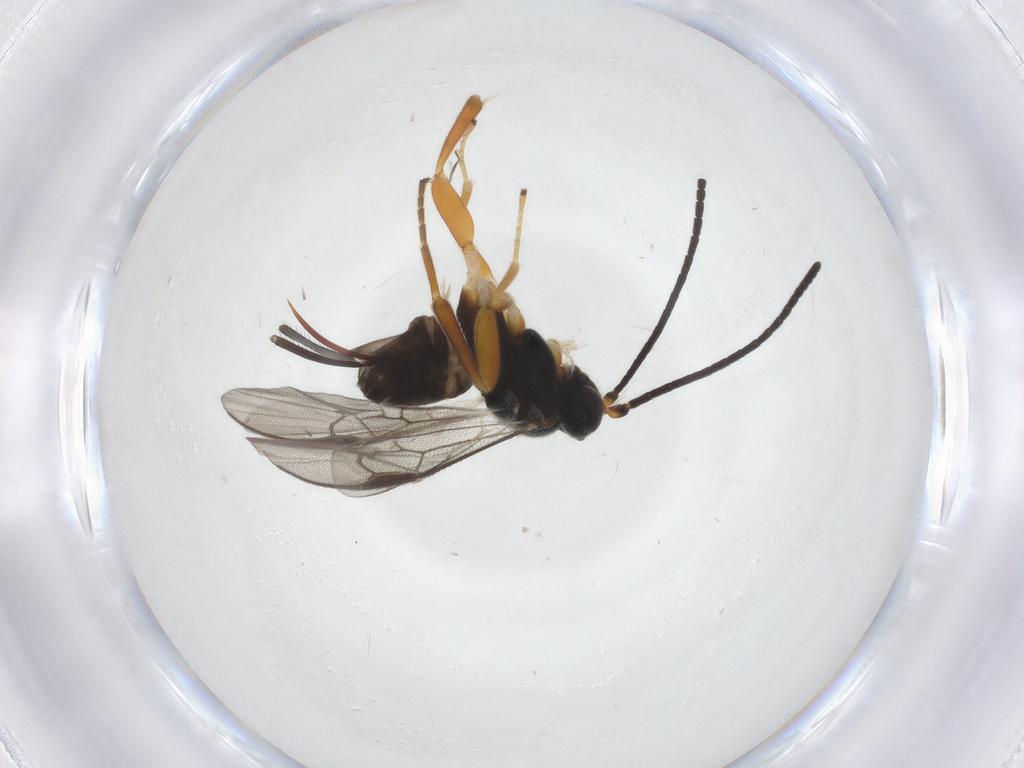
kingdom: Animalia
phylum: Arthropoda
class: Insecta
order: Hymenoptera
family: Braconidae
